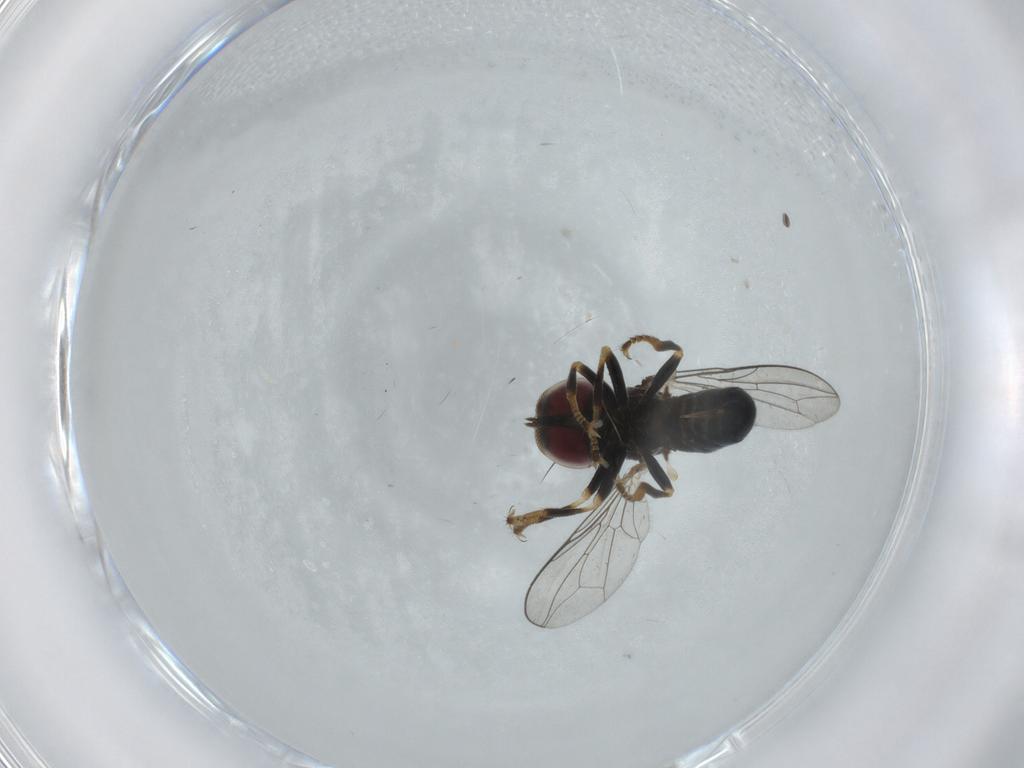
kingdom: Animalia
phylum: Arthropoda
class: Insecta
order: Diptera
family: Pipunculidae
